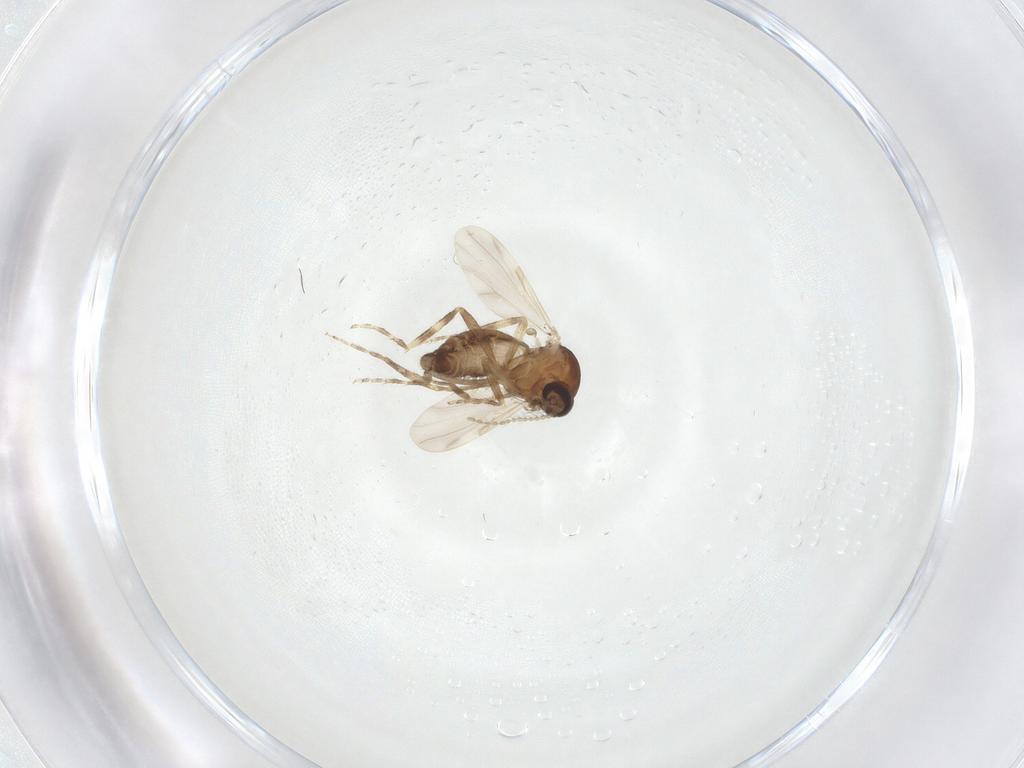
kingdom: Animalia
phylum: Arthropoda
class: Insecta
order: Diptera
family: Ceratopogonidae
